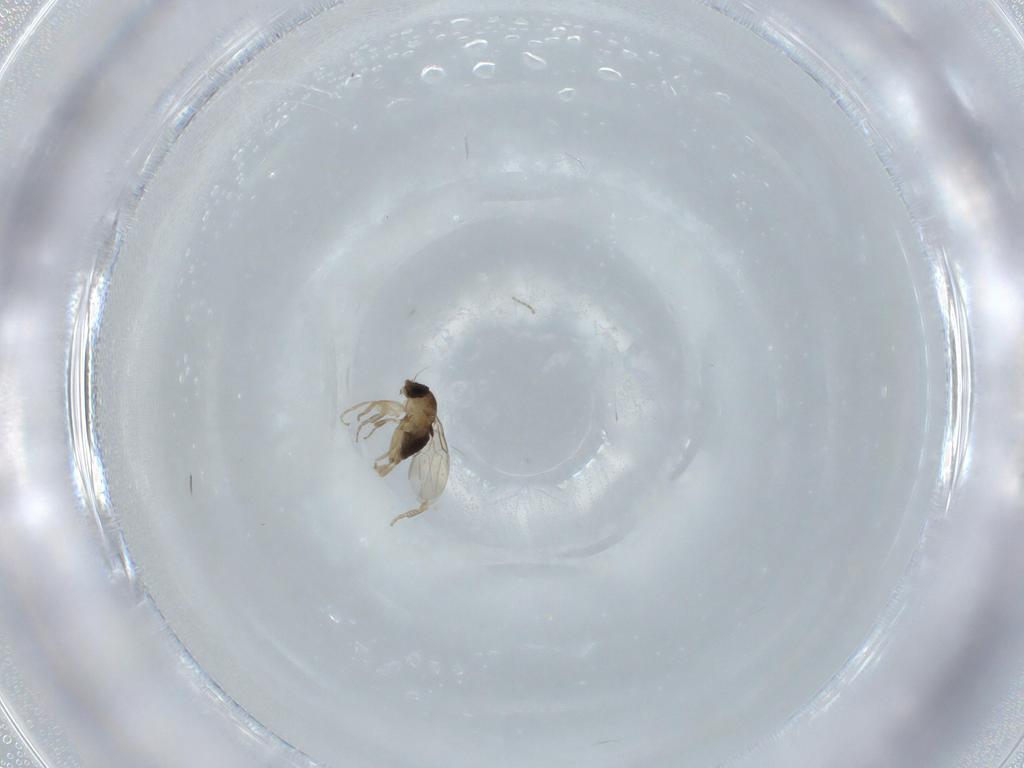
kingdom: Animalia
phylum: Arthropoda
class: Insecta
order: Diptera
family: Phoridae
